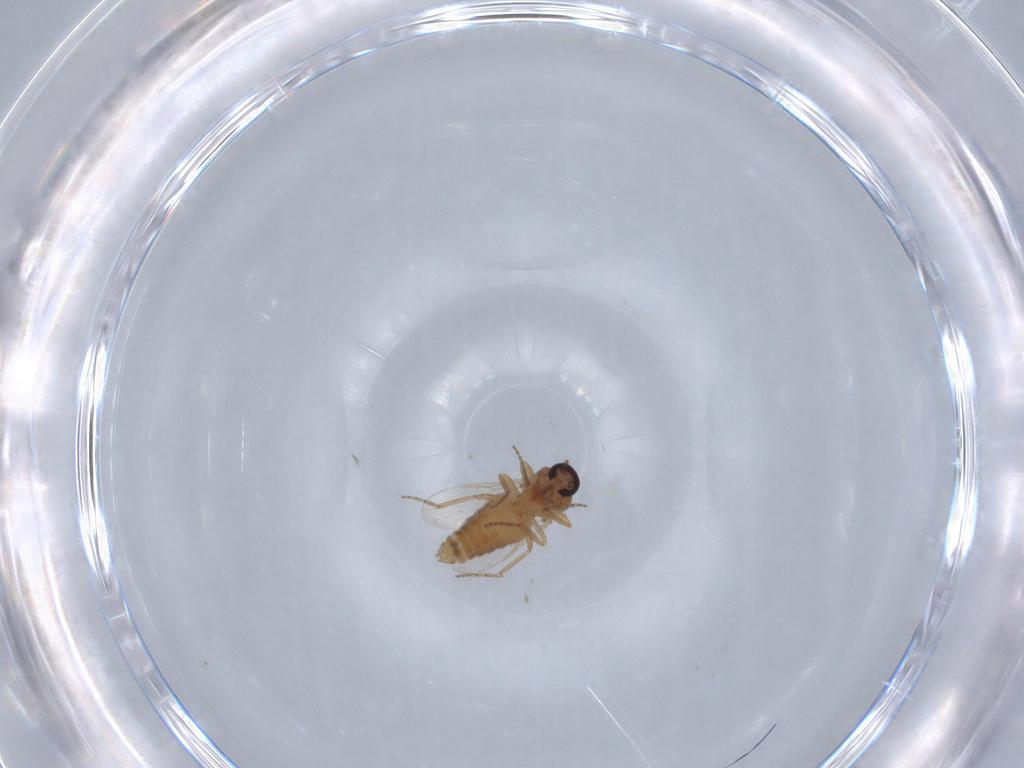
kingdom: Animalia
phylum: Arthropoda
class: Insecta
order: Diptera
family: Ceratopogonidae
